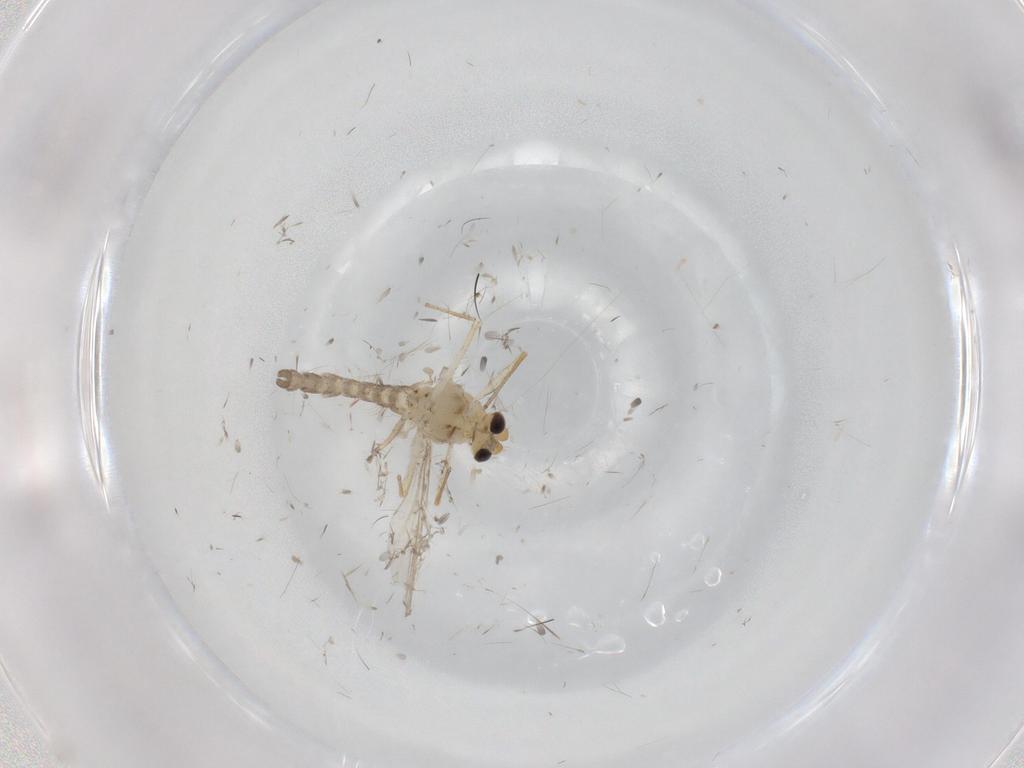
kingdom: Animalia
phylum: Arthropoda
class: Insecta
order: Diptera
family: Chironomidae
